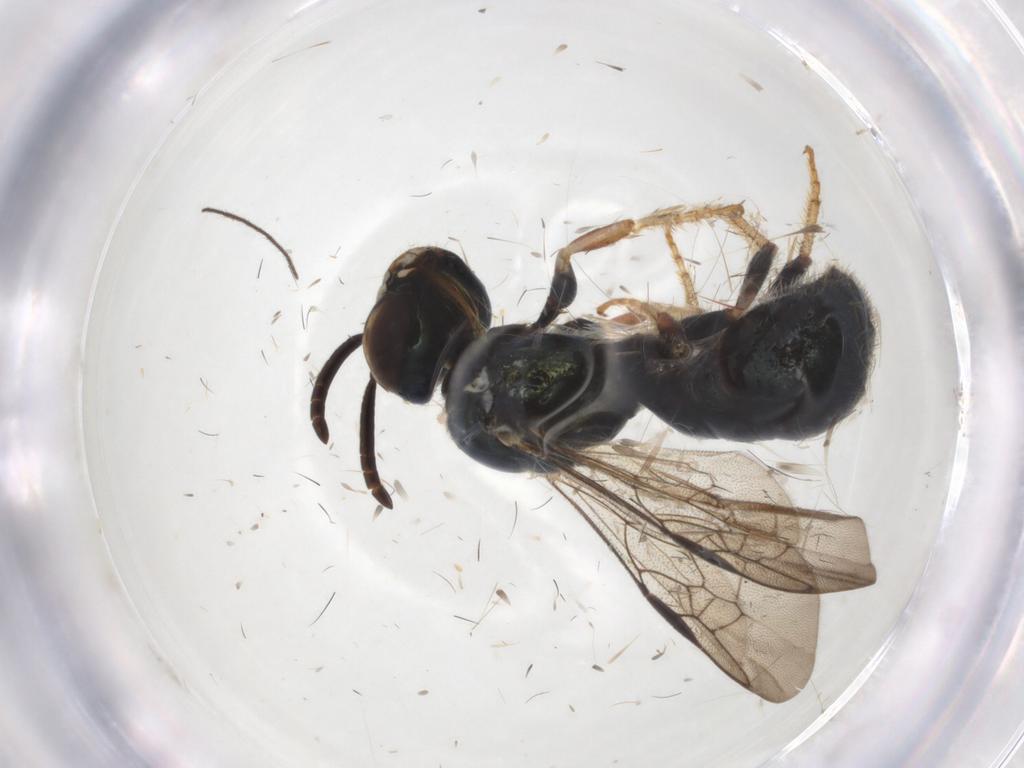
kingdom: Animalia
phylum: Arthropoda
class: Insecta
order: Hymenoptera
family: Apidae
